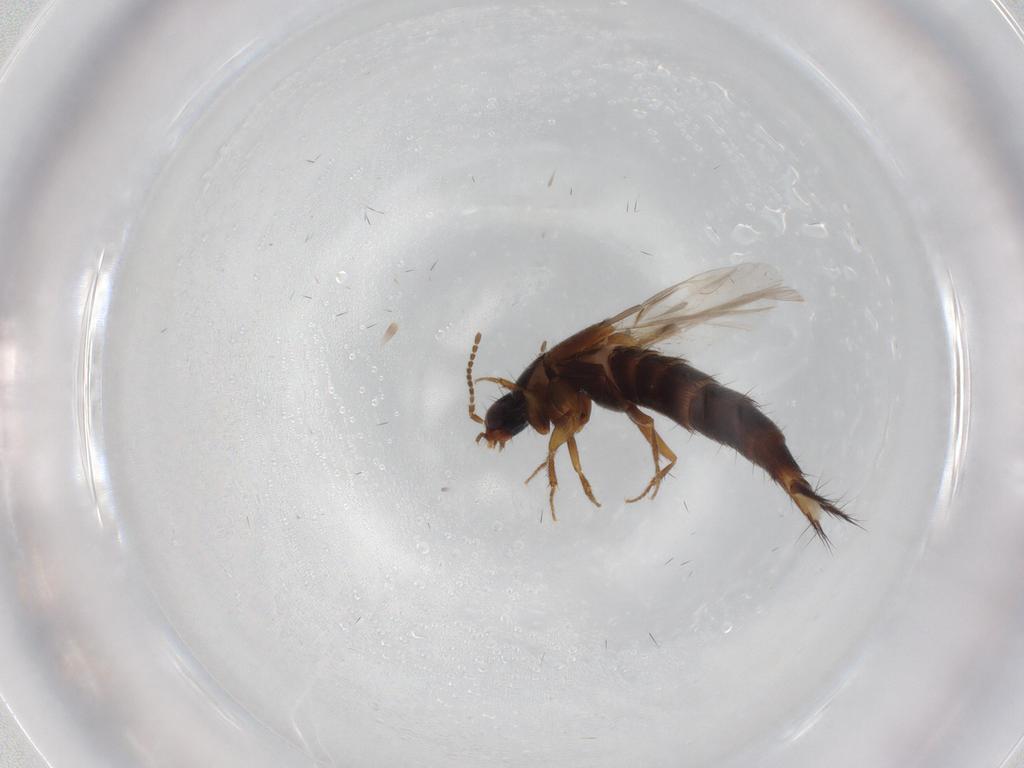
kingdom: Animalia
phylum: Arthropoda
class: Insecta
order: Coleoptera
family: Staphylinidae
